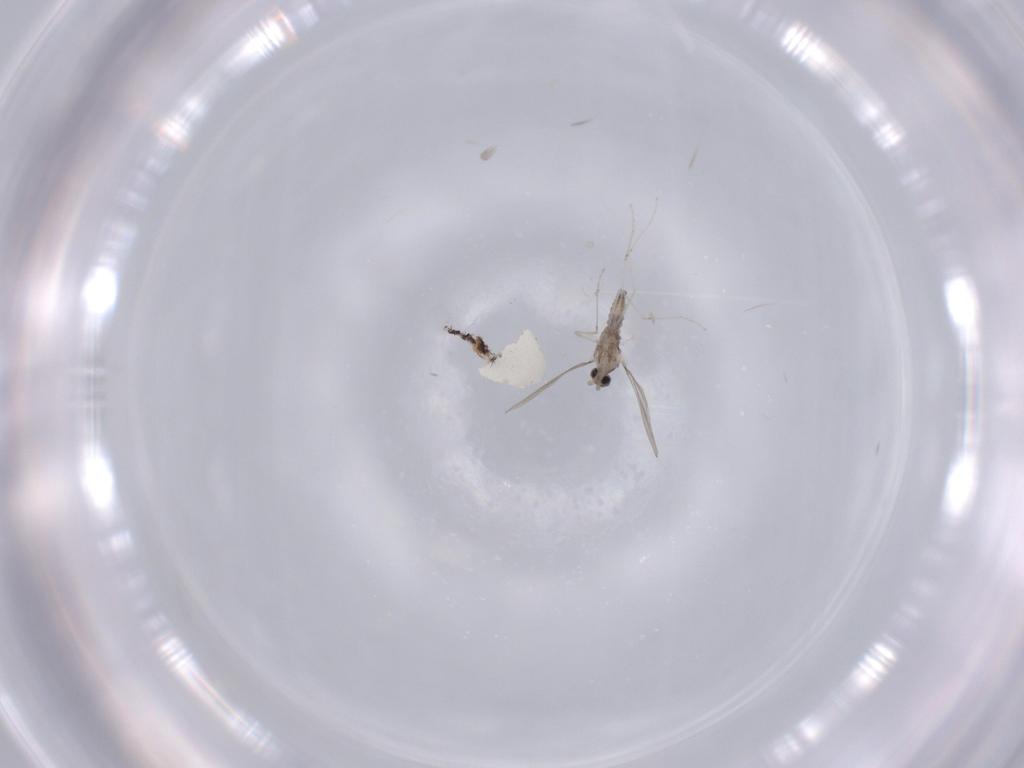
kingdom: Animalia
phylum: Arthropoda
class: Insecta
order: Diptera
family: Cecidomyiidae
